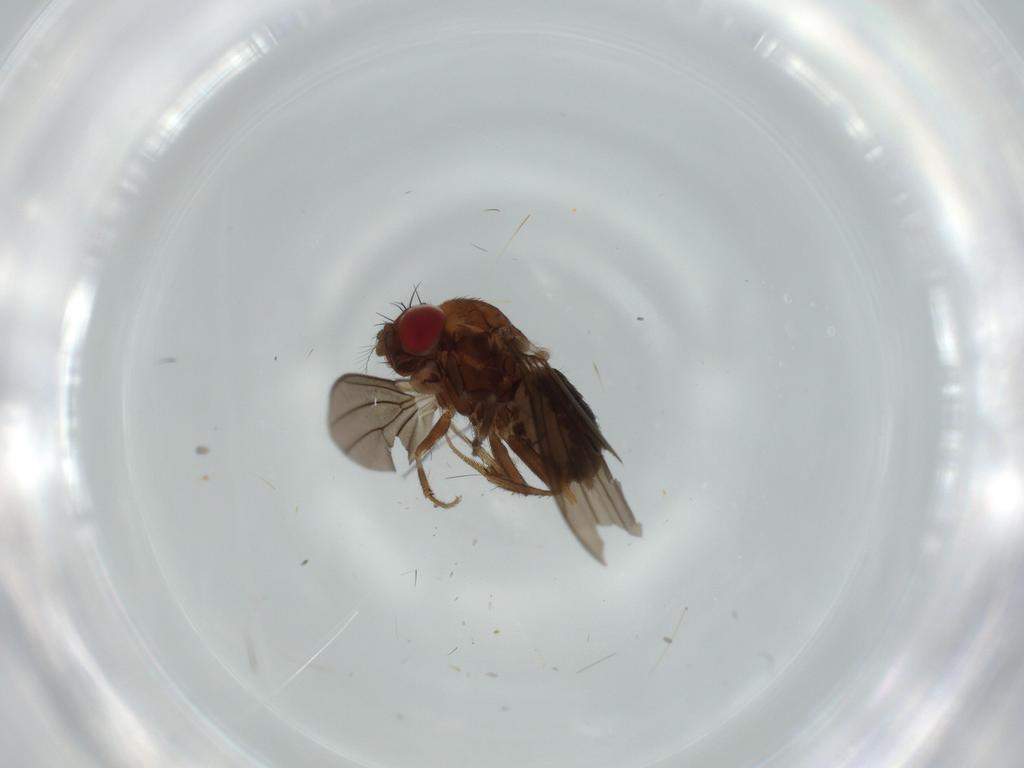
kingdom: Animalia
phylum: Arthropoda
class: Insecta
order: Diptera
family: Drosophilidae
